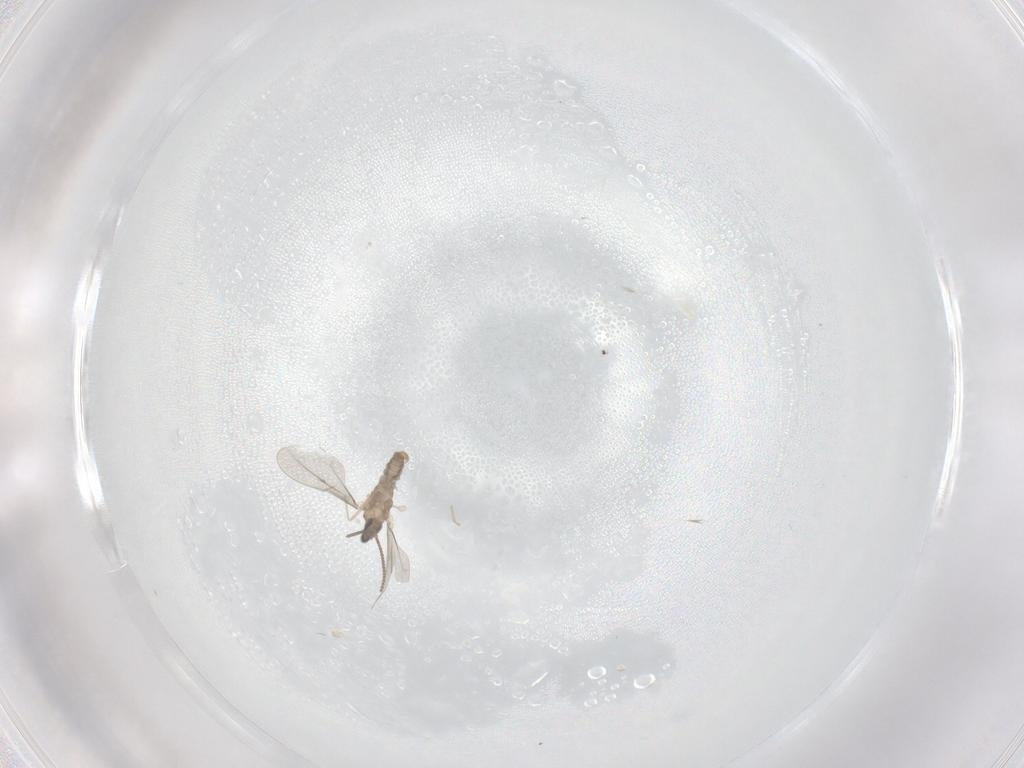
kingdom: Animalia
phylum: Arthropoda
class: Insecta
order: Diptera
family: Cecidomyiidae
